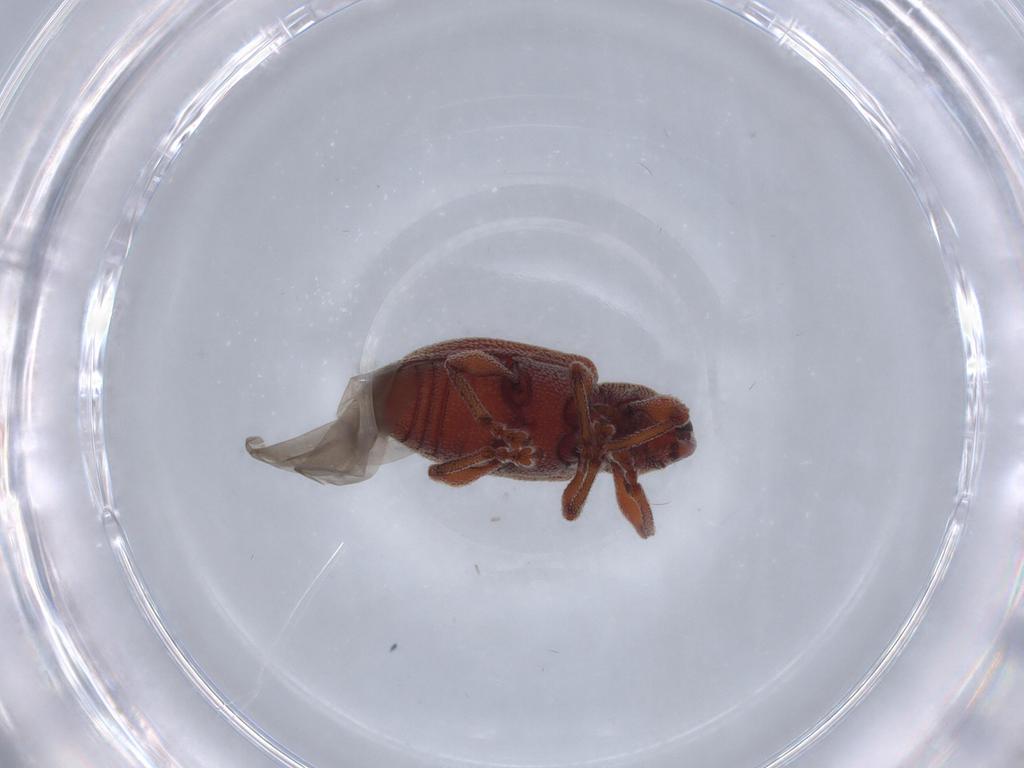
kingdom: Animalia
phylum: Arthropoda
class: Insecta
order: Coleoptera
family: Curculionidae
